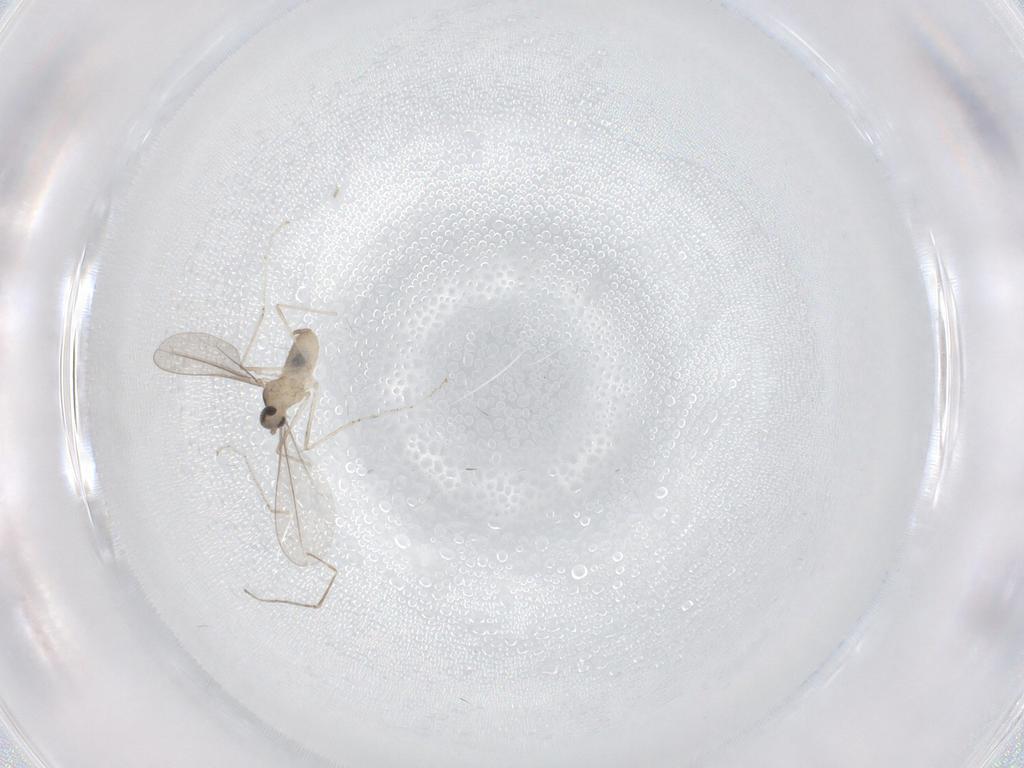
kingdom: Animalia
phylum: Arthropoda
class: Insecta
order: Diptera
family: Cecidomyiidae
